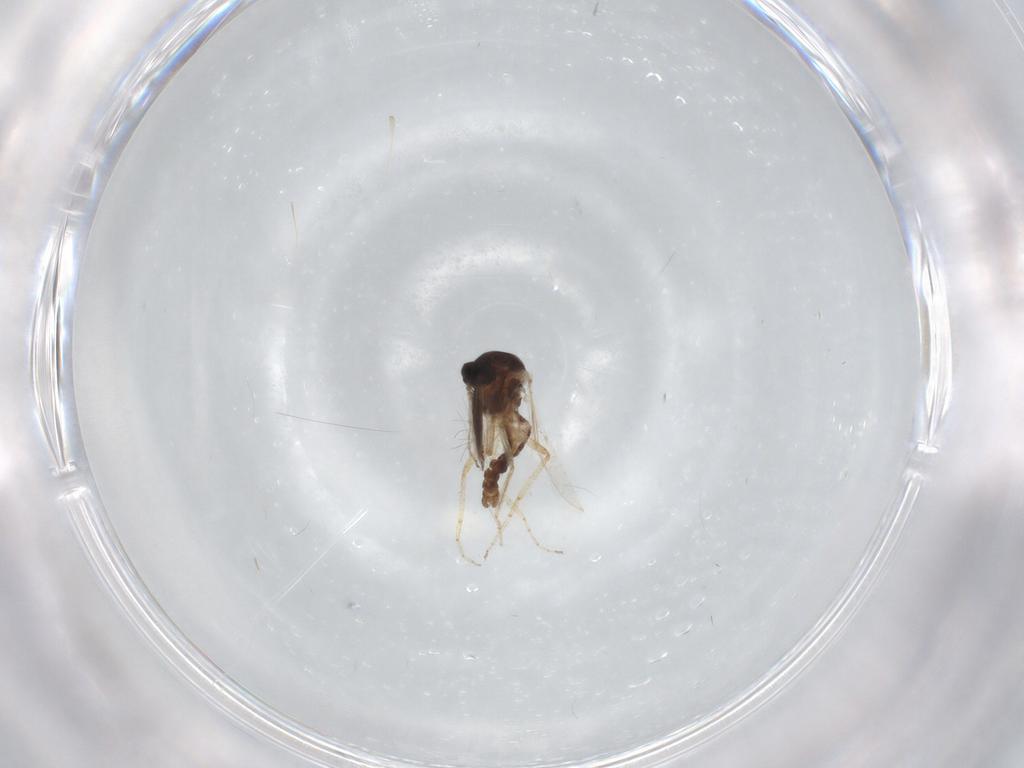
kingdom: Animalia
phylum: Arthropoda
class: Insecta
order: Diptera
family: Ceratopogonidae
